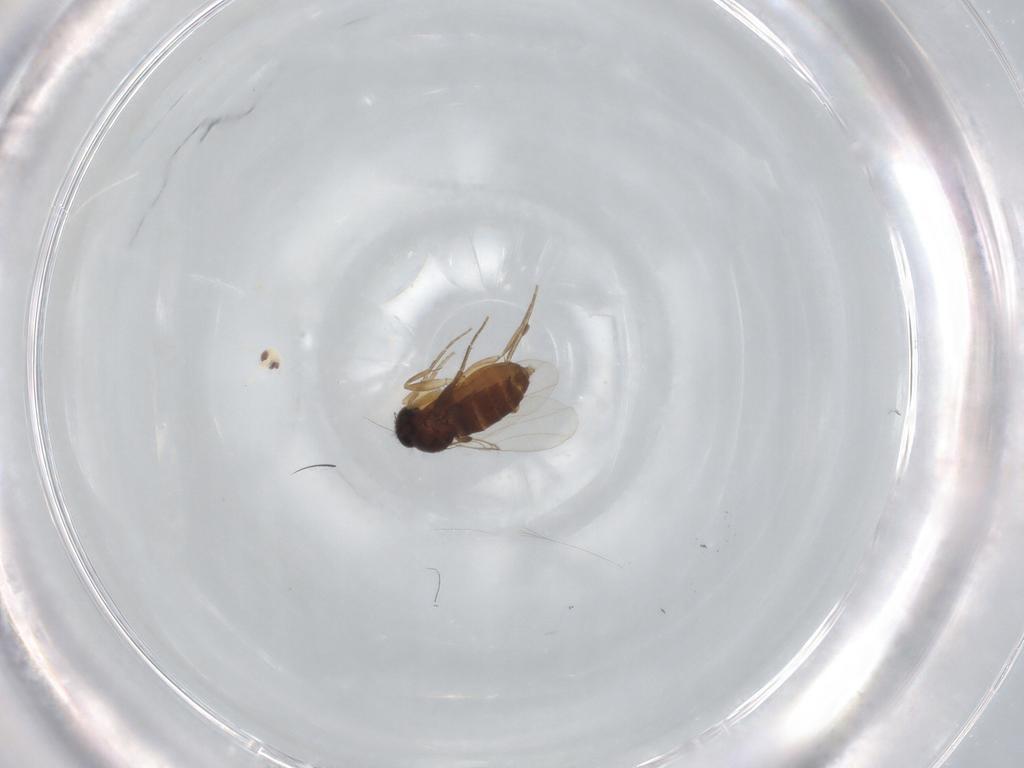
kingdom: Animalia
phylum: Arthropoda
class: Insecta
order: Diptera
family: Phoridae
